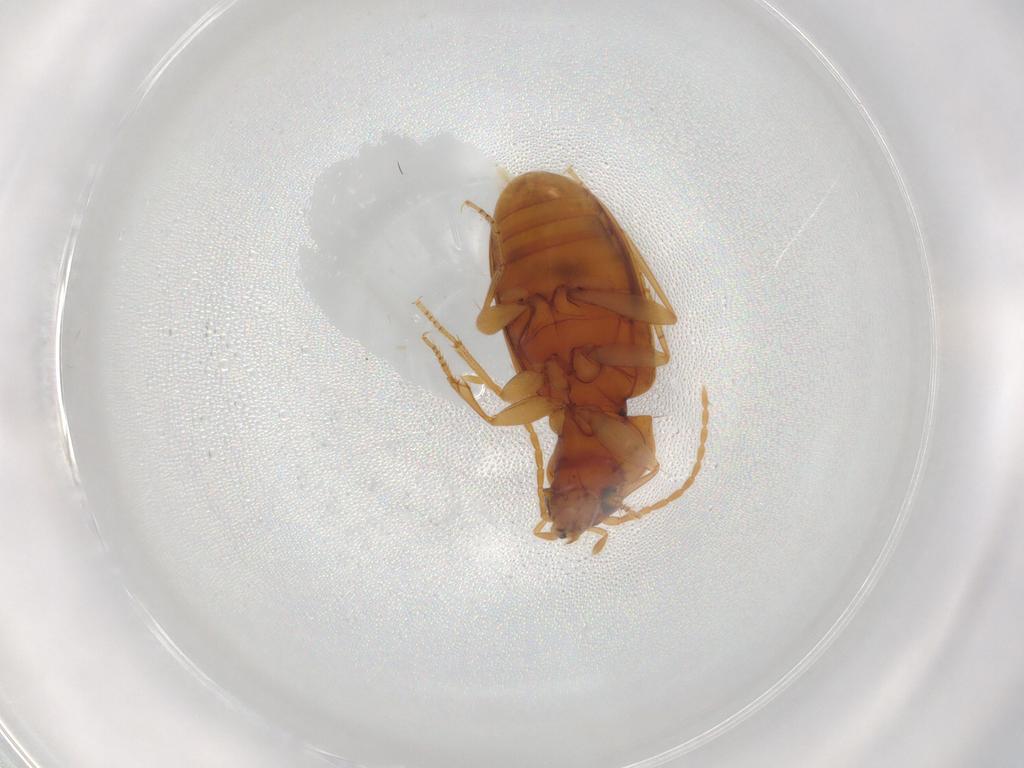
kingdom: Animalia
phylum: Arthropoda
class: Insecta
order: Coleoptera
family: Carabidae
